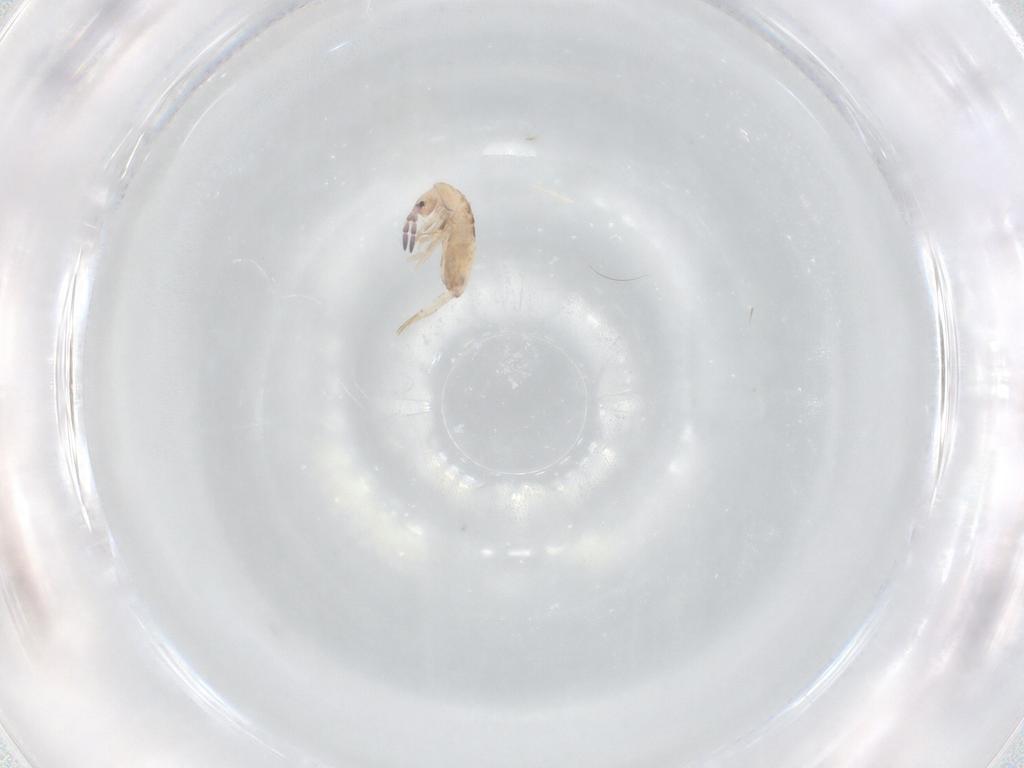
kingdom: Animalia
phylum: Arthropoda
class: Collembola
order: Entomobryomorpha
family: Entomobryidae
